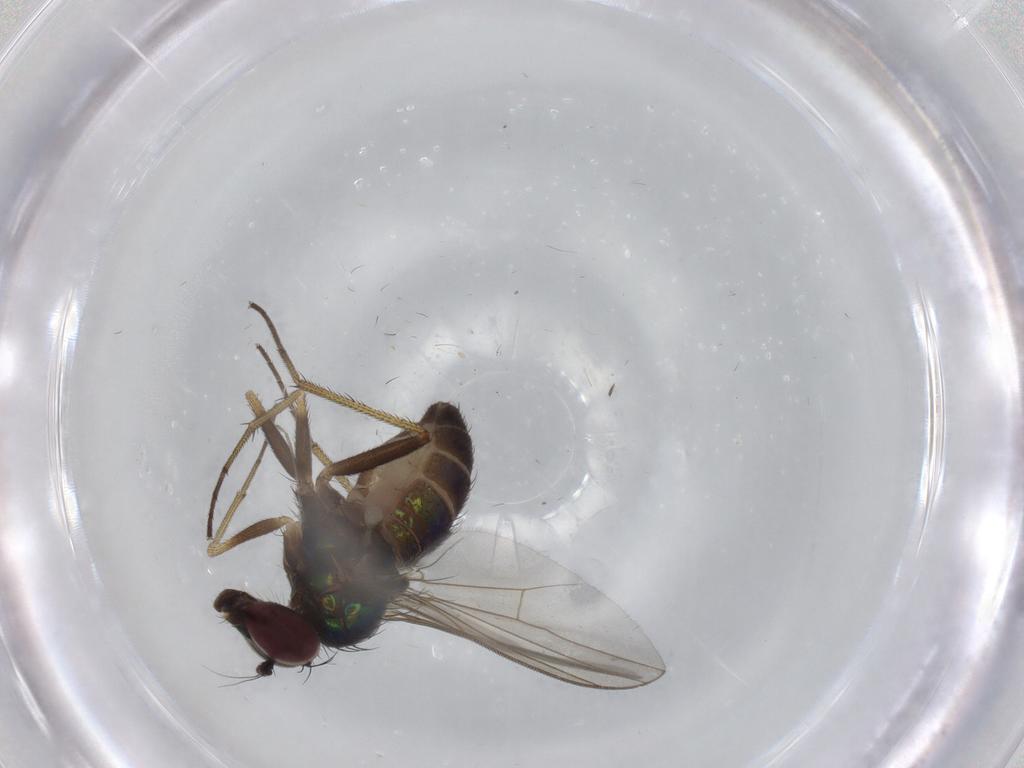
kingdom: Animalia
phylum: Arthropoda
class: Insecta
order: Diptera
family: Dolichopodidae
